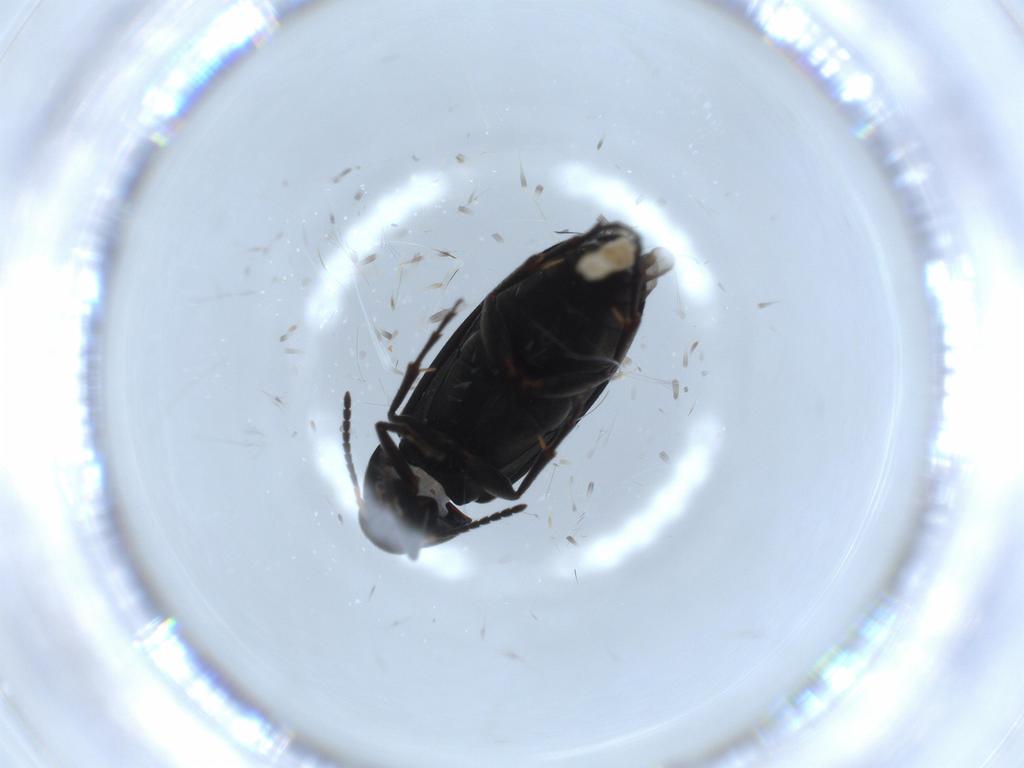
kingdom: Animalia
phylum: Arthropoda
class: Insecta
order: Coleoptera
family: Scraptiidae
